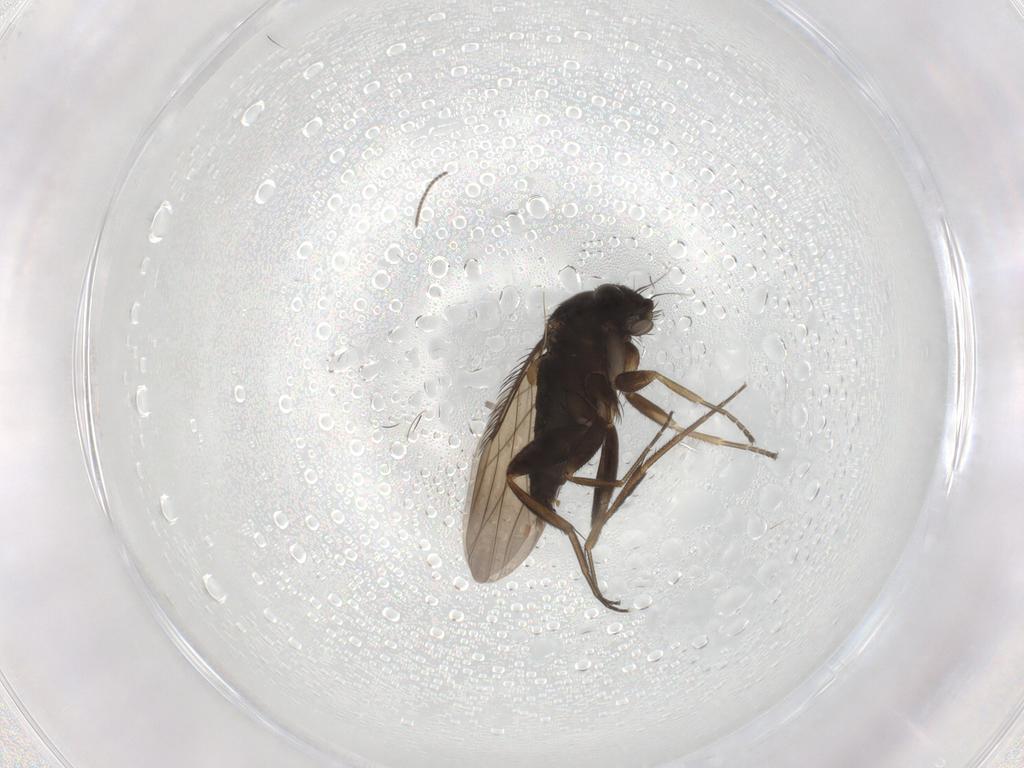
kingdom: Animalia
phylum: Arthropoda
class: Insecta
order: Diptera
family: Phoridae
